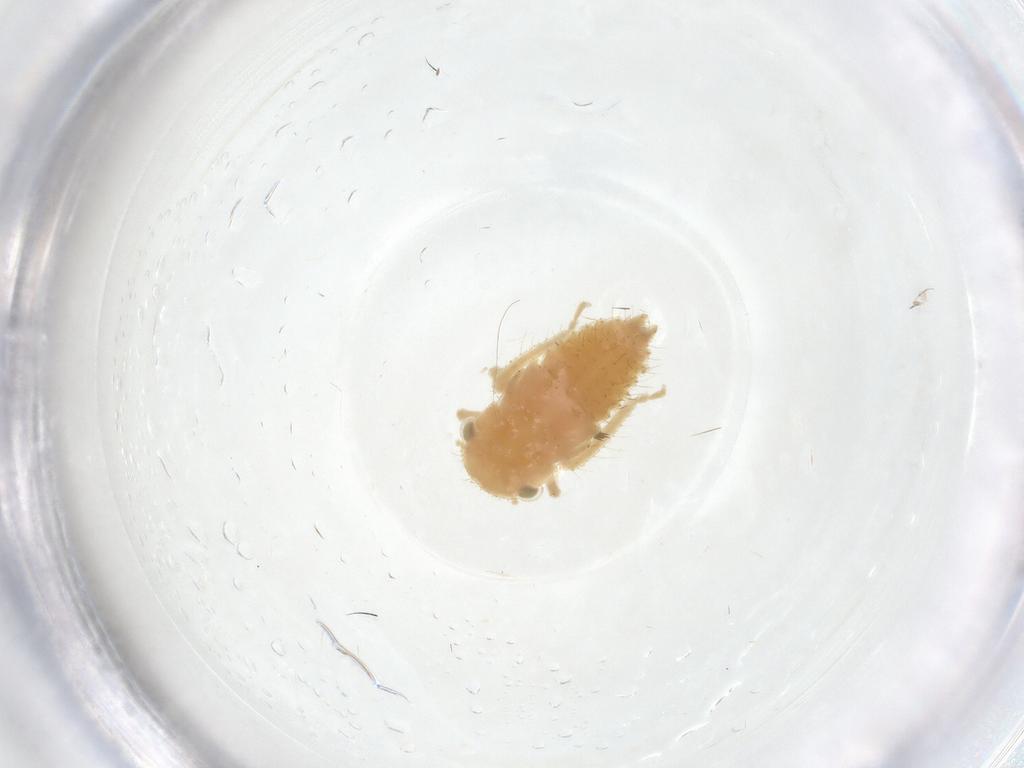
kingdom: Animalia
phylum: Arthropoda
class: Insecta
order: Hemiptera
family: Cicadellidae
